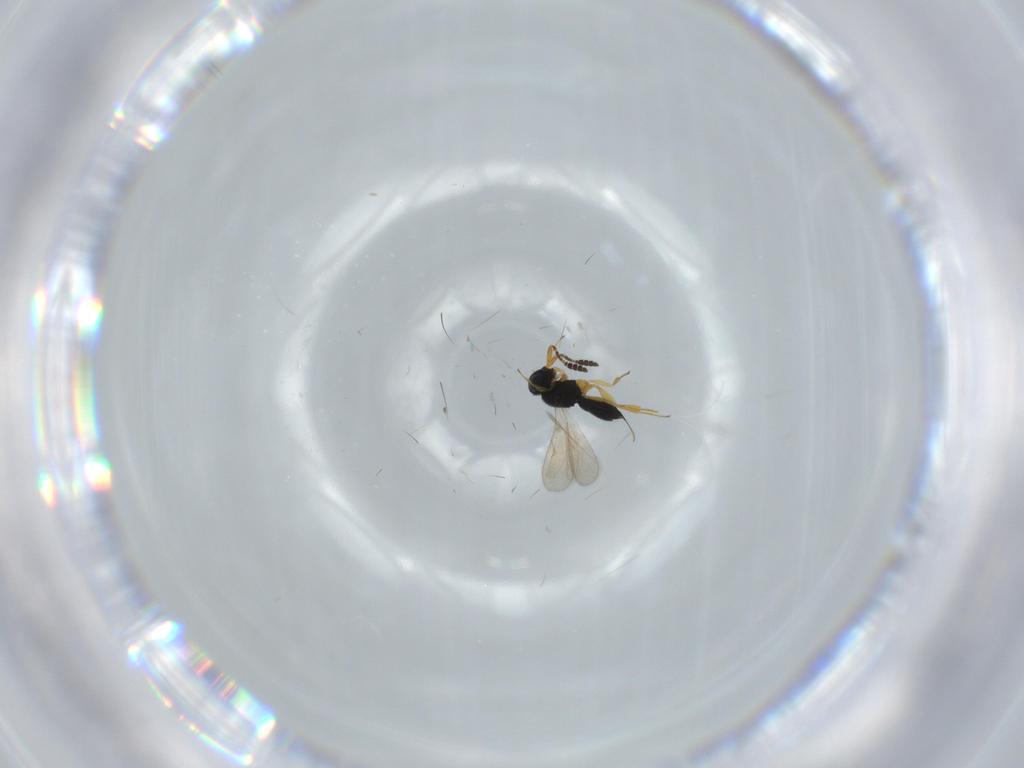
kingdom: Animalia
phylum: Arthropoda
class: Insecta
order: Hymenoptera
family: Scelionidae
